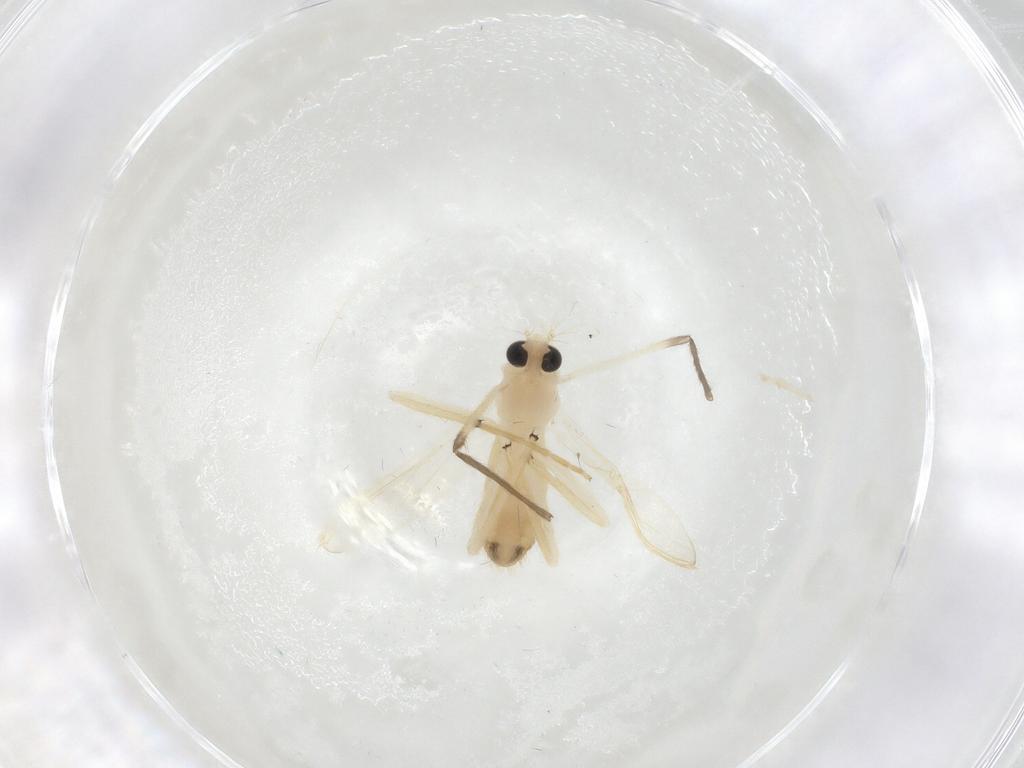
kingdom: Animalia
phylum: Arthropoda
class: Insecta
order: Diptera
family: Chironomidae
